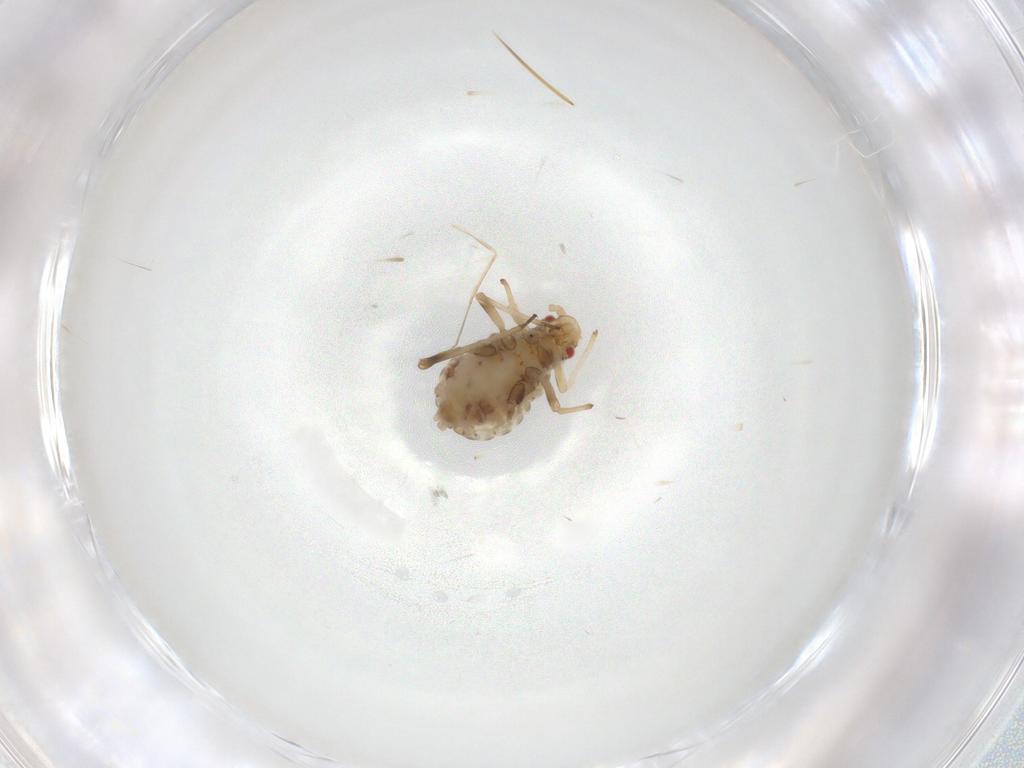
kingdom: Animalia
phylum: Arthropoda
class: Insecta
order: Hemiptera
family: Aphididae
